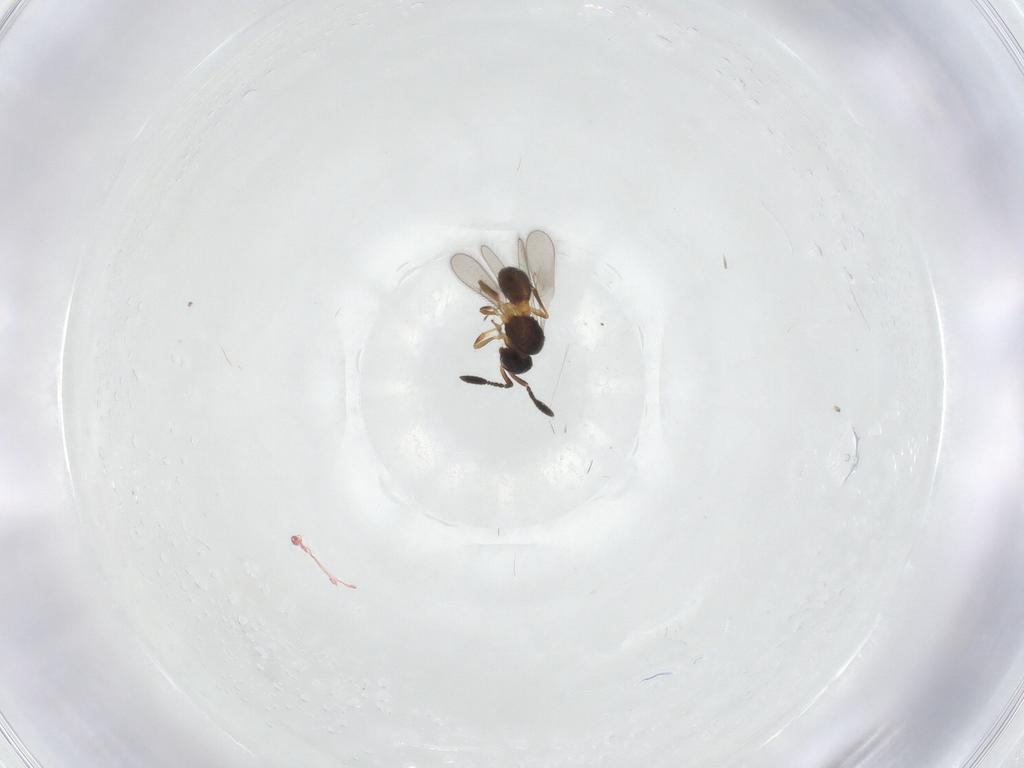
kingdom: Animalia
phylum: Arthropoda
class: Insecta
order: Hymenoptera
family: Scelionidae
